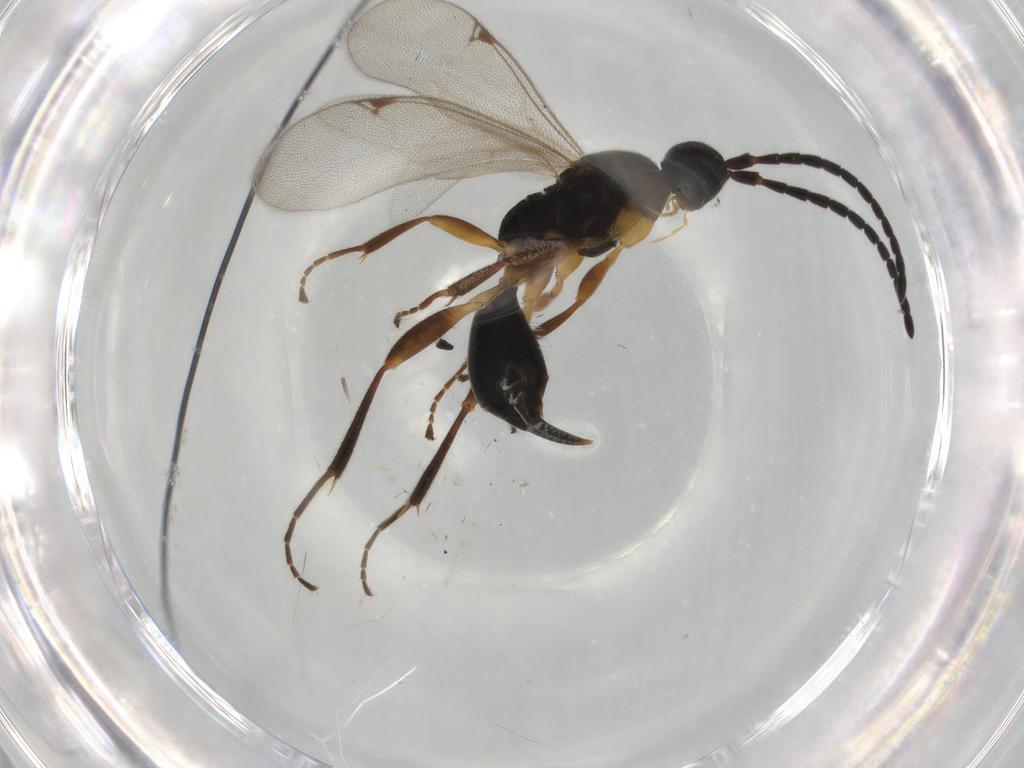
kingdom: Animalia
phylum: Arthropoda
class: Insecta
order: Hymenoptera
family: Proctotrupidae
